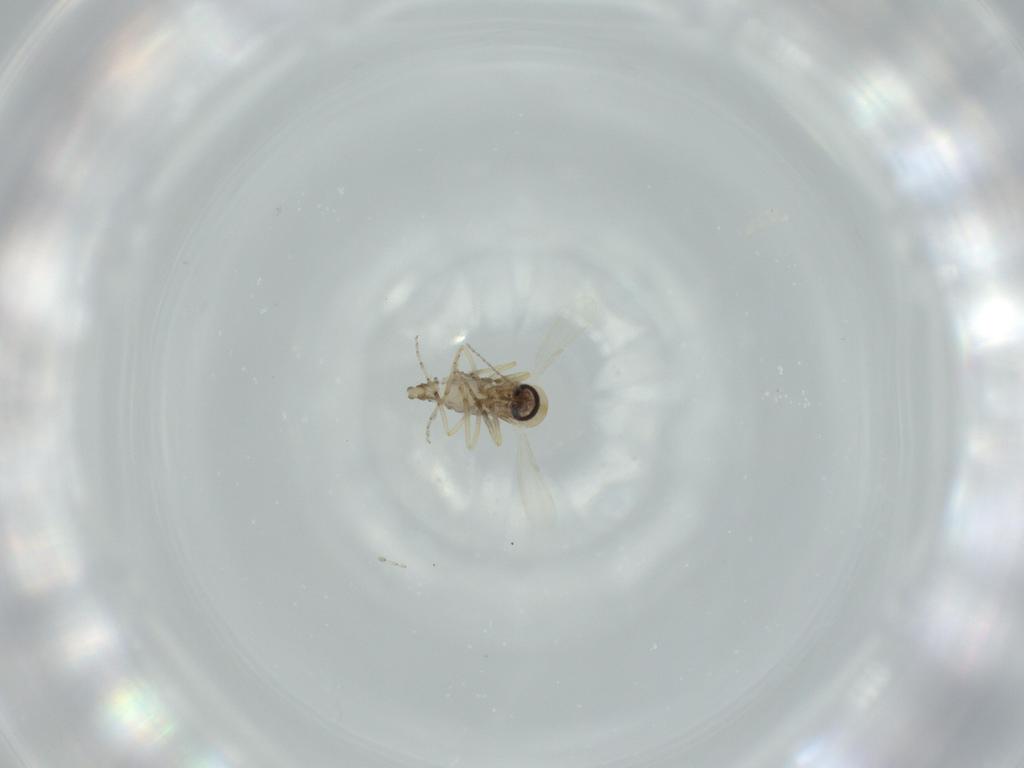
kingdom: Animalia
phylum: Arthropoda
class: Insecta
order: Diptera
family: Ceratopogonidae
